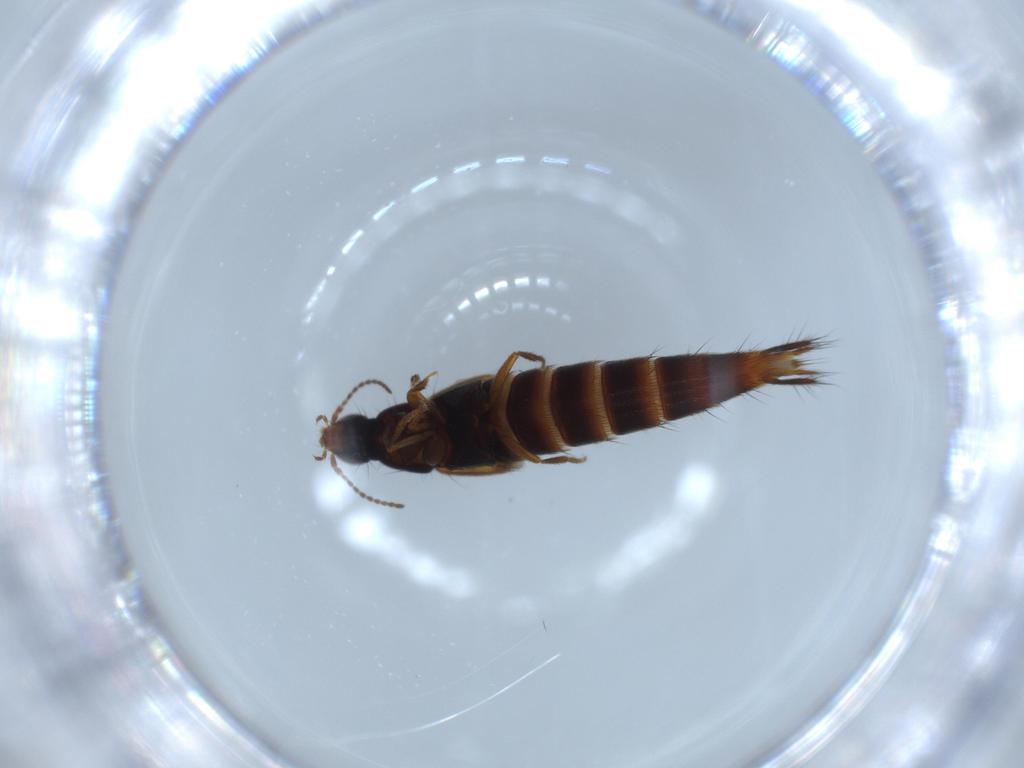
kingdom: Animalia
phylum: Arthropoda
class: Insecta
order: Coleoptera
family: Staphylinidae
